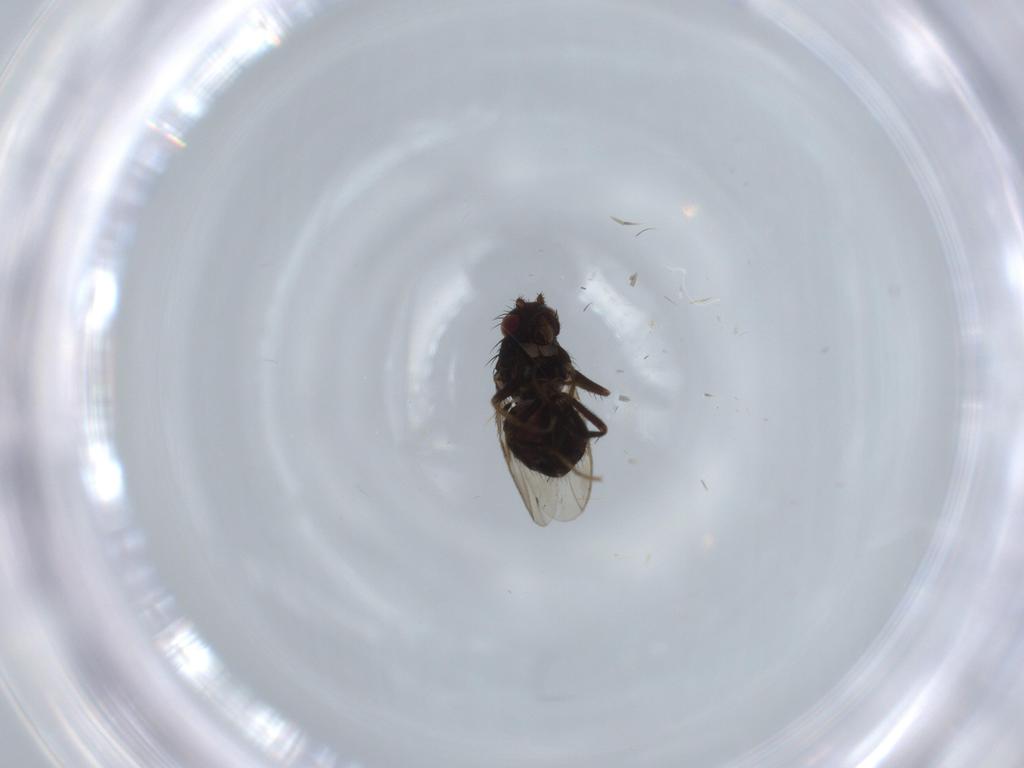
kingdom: Animalia
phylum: Arthropoda
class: Insecta
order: Diptera
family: Sphaeroceridae
